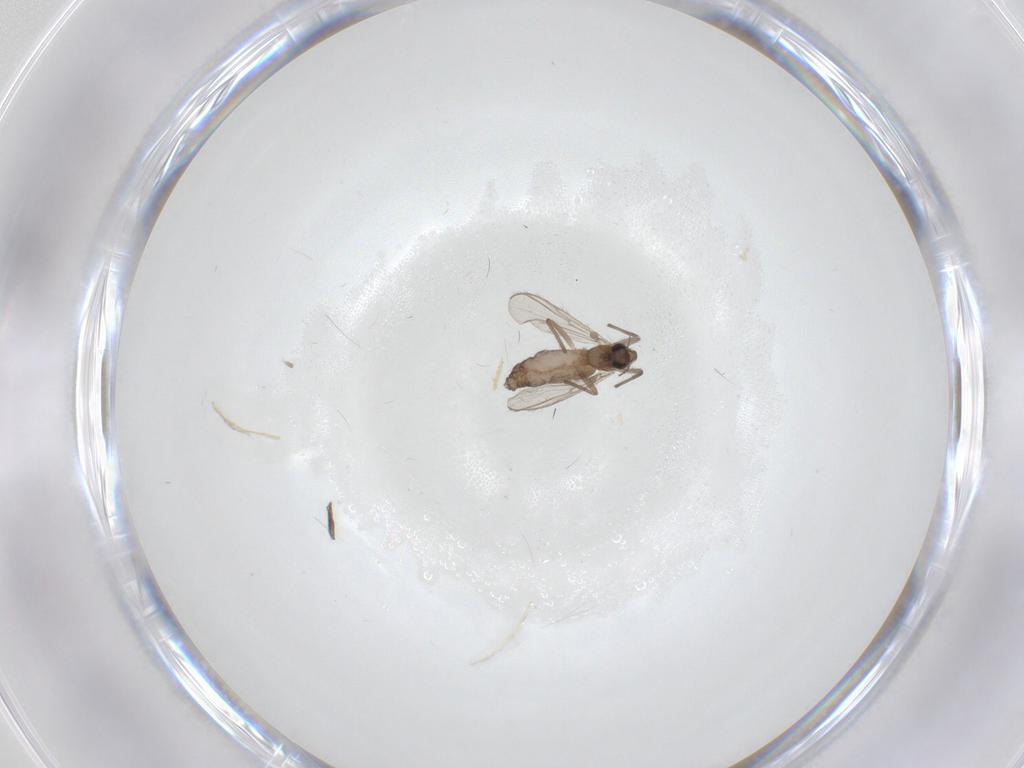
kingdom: Animalia
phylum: Arthropoda
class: Insecta
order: Diptera
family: Chironomidae
